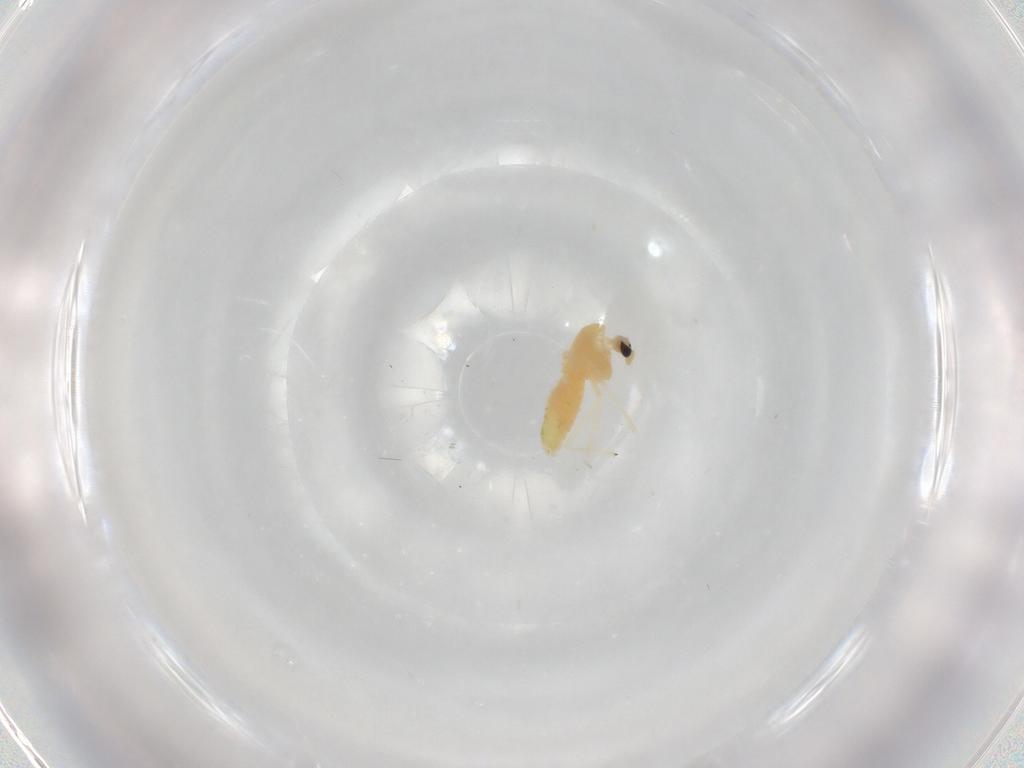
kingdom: Animalia
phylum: Arthropoda
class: Insecta
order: Diptera
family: Chironomidae
